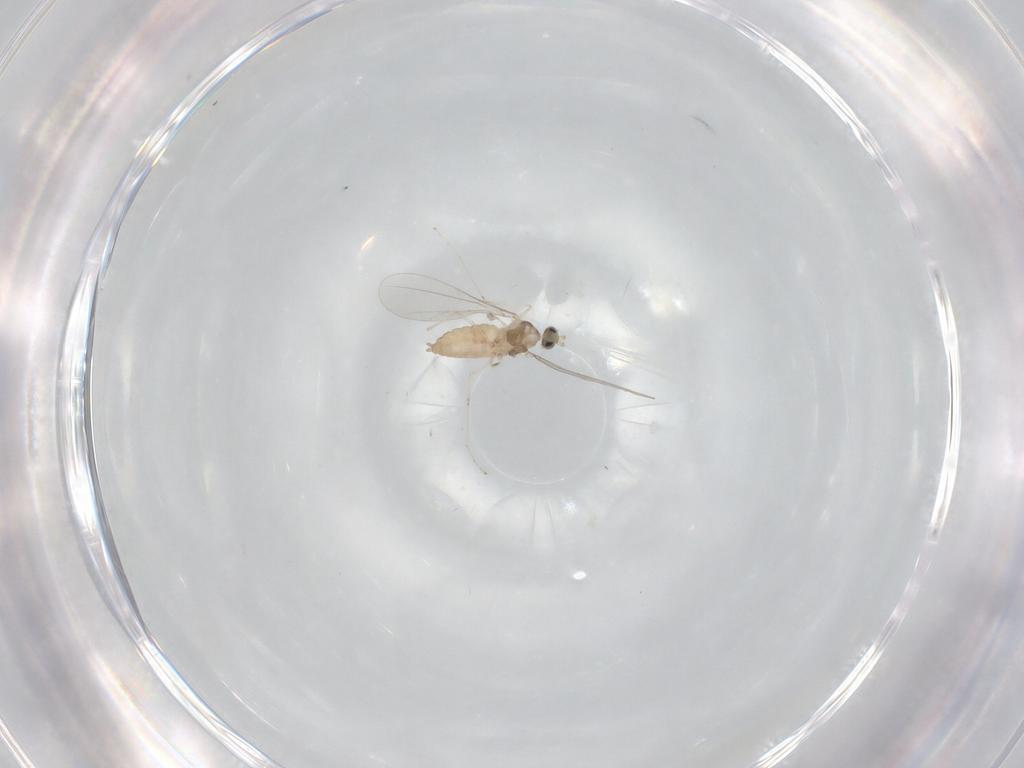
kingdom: Animalia
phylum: Arthropoda
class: Insecta
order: Diptera
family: Cecidomyiidae
